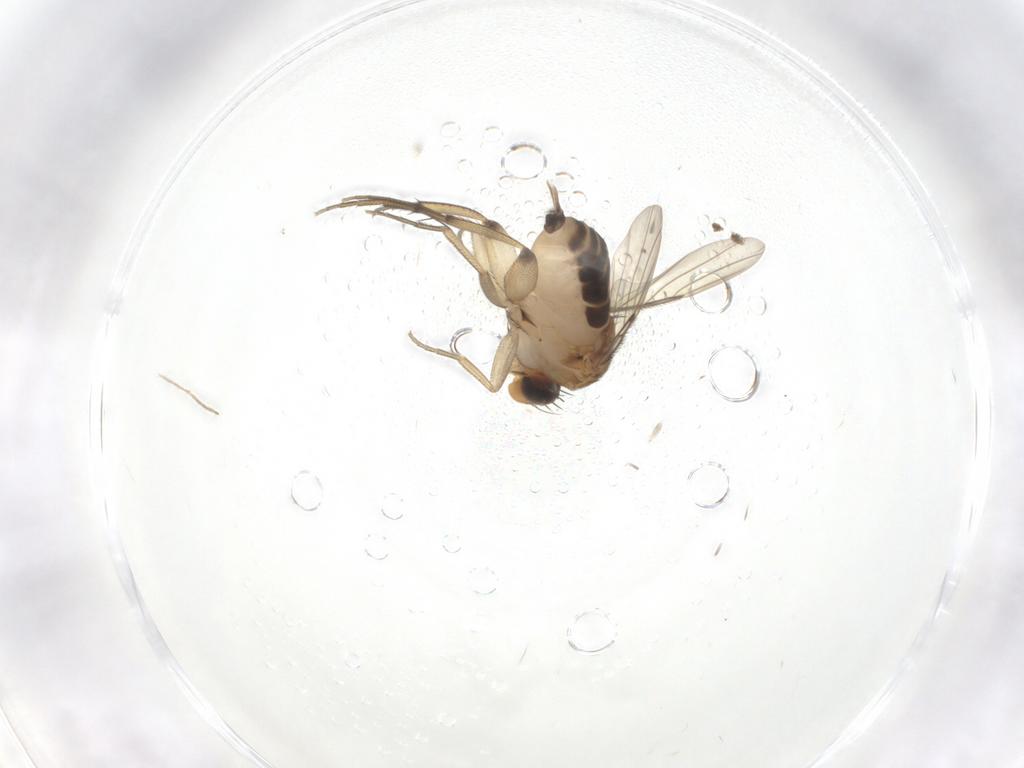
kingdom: Animalia
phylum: Arthropoda
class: Insecta
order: Diptera
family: Phoridae
